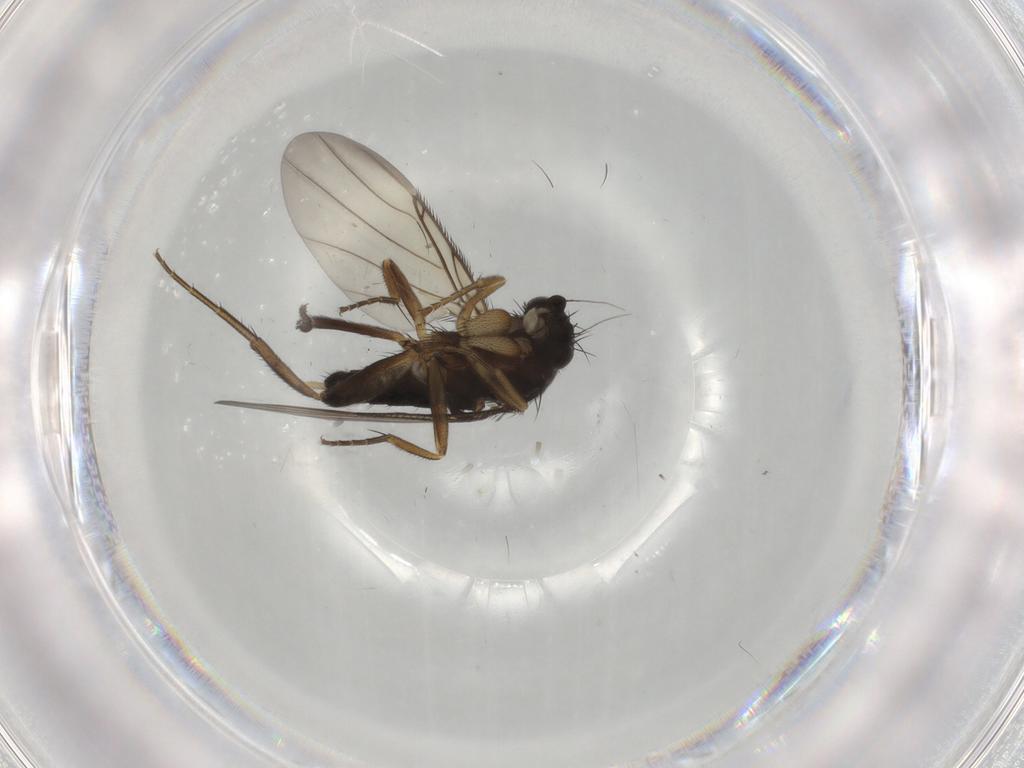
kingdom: Animalia
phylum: Arthropoda
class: Insecta
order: Diptera
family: Phoridae
